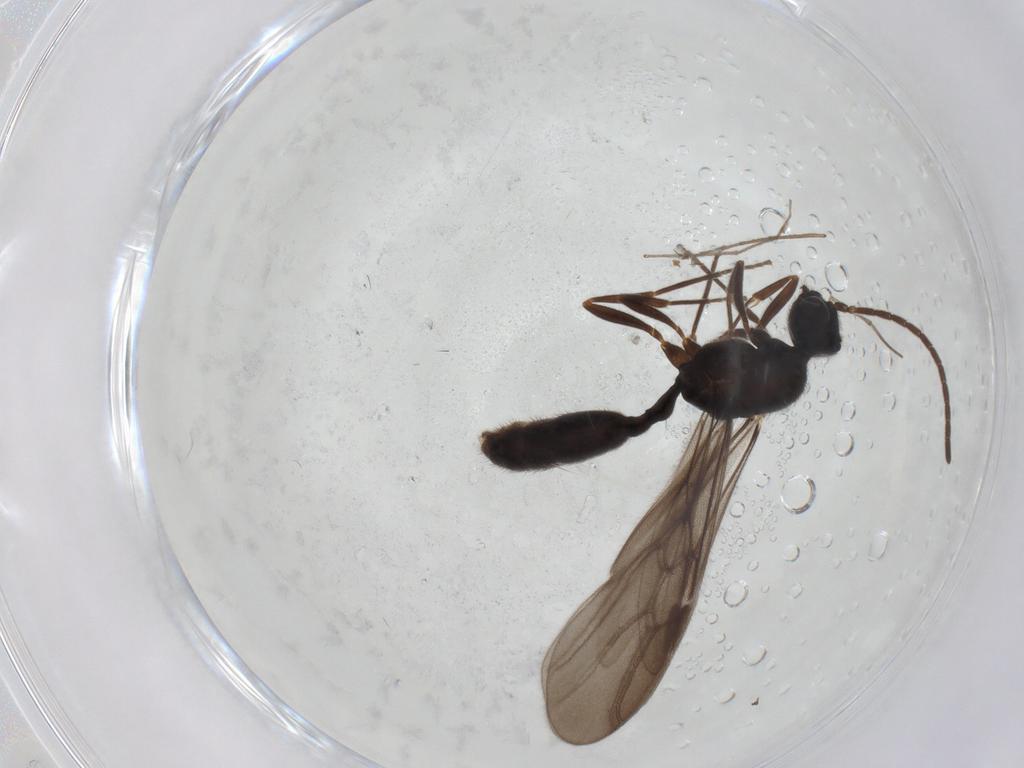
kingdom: Animalia
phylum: Arthropoda
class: Insecta
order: Hymenoptera
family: Formicidae
